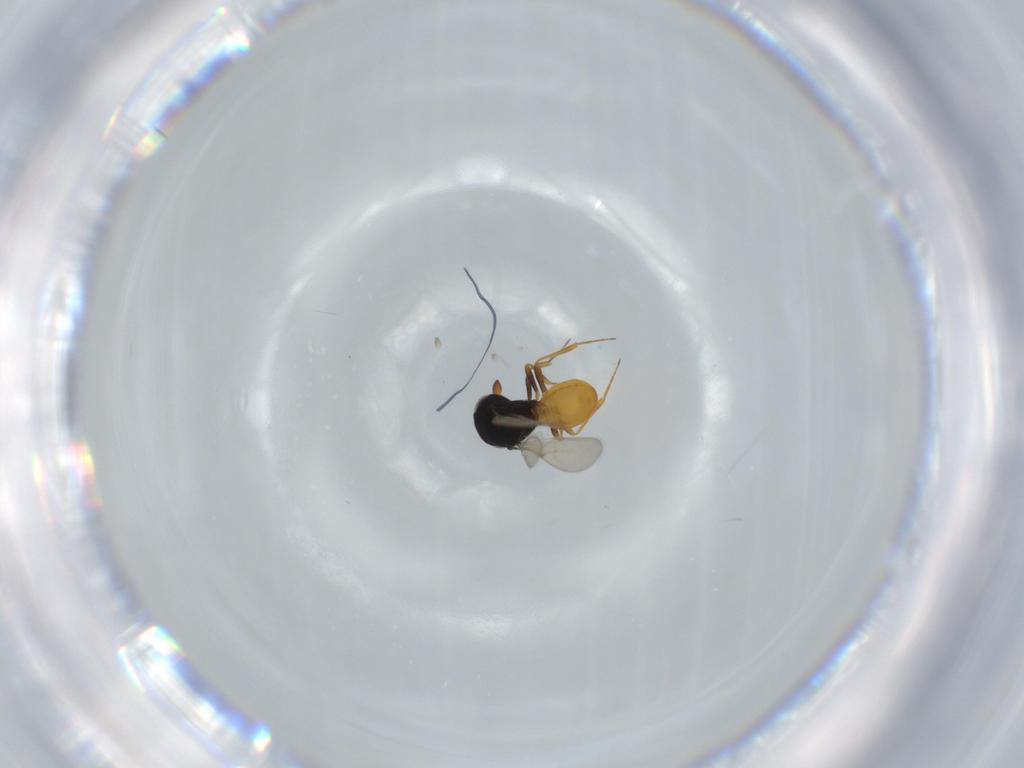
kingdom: Animalia
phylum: Arthropoda
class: Insecta
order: Hymenoptera
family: Scelionidae
